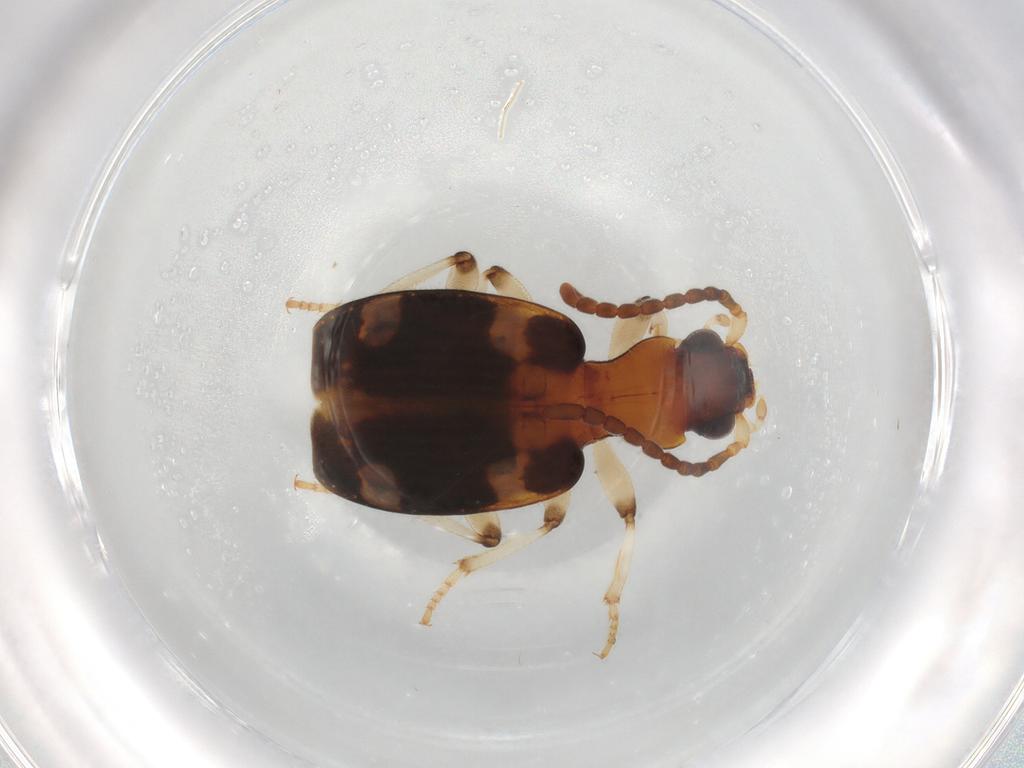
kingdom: Animalia
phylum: Arthropoda
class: Insecta
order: Coleoptera
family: Carabidae
